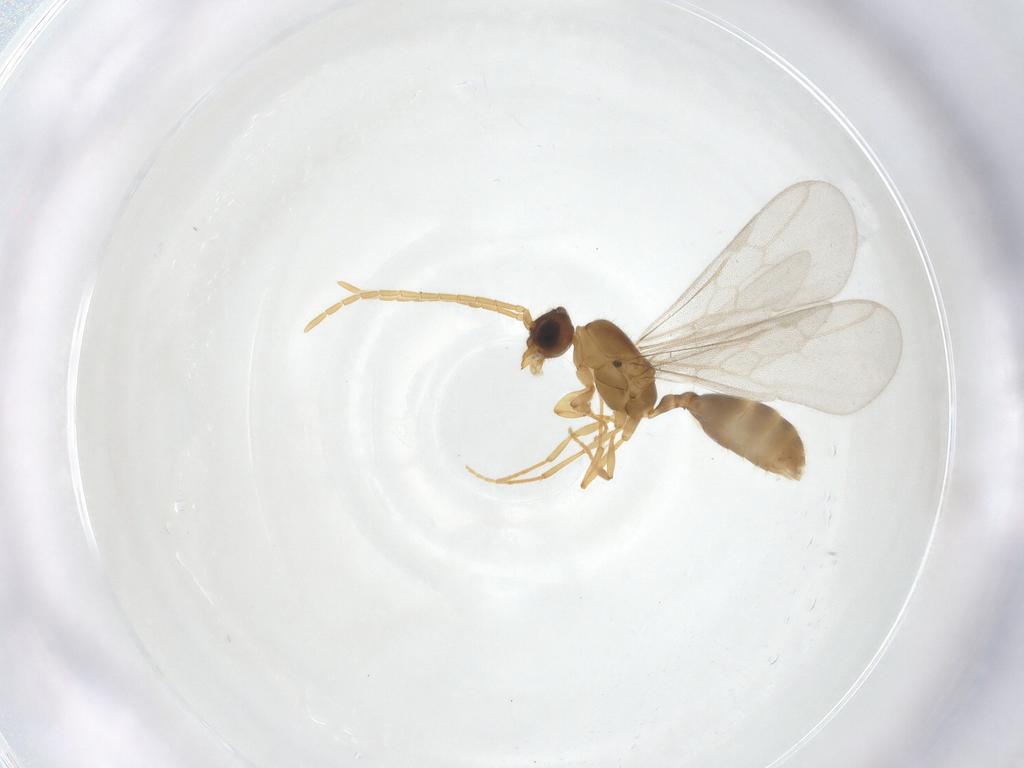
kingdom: Animalia
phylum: Arthropoda
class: Insecta
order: Hymenoptera
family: Formicidae
